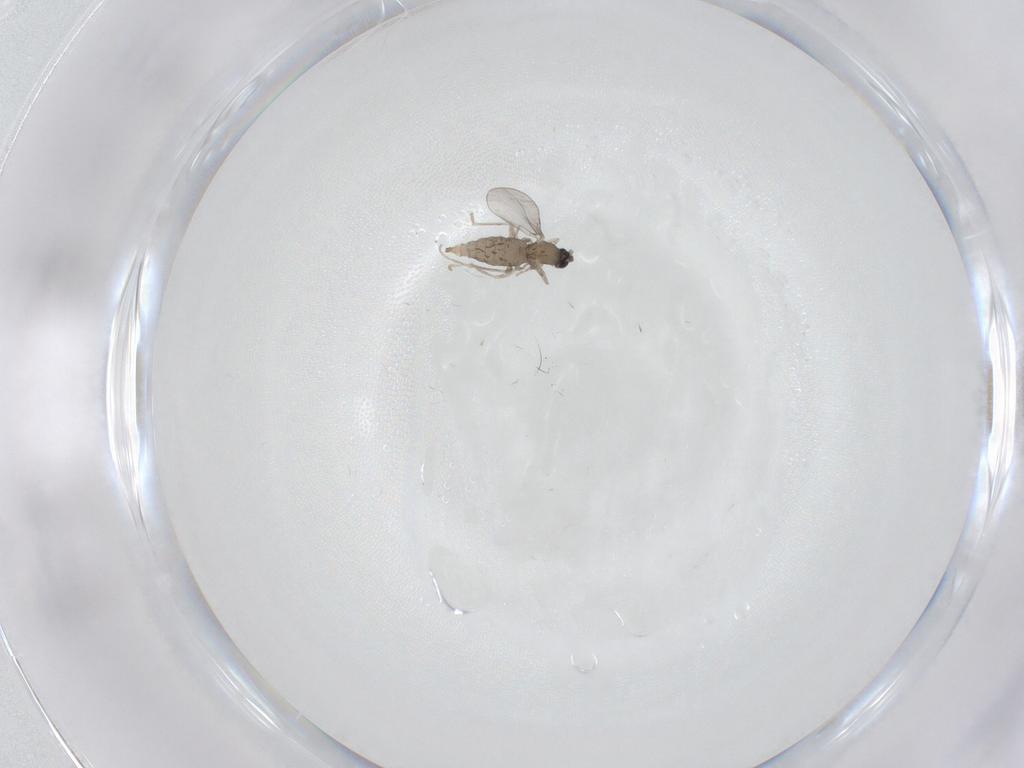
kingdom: Animalia
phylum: Arthropoda
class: Insecta
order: Diptera
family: Cecidomyiidae
